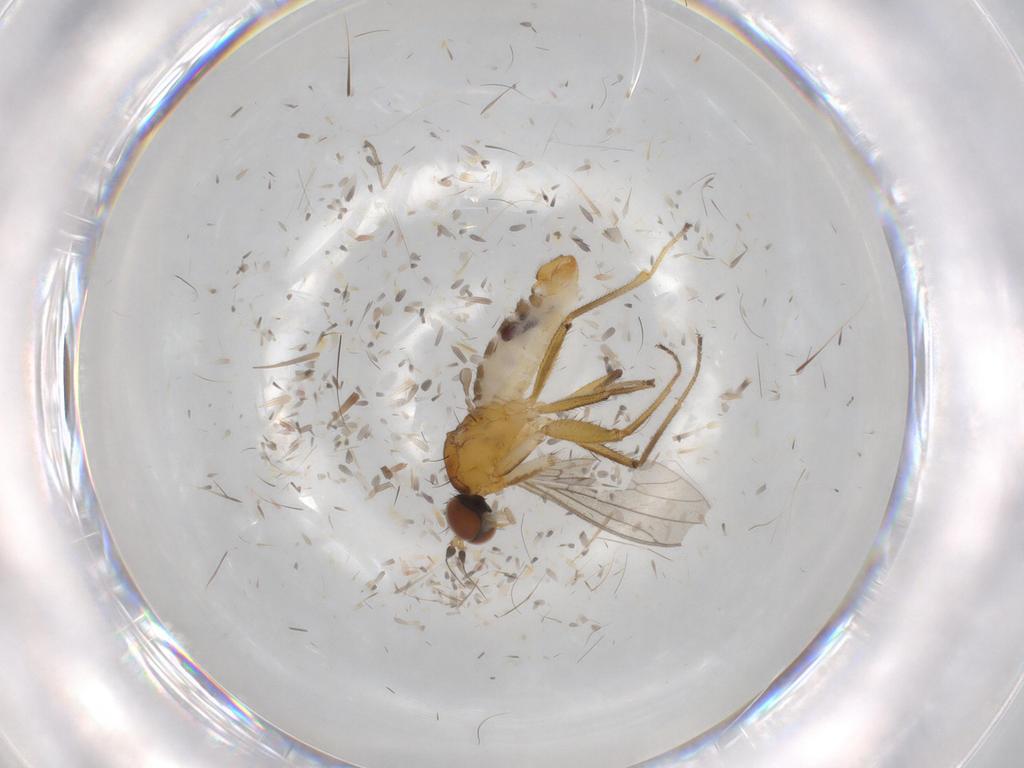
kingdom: Animalia
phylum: Arthropoda
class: Insecta
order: Diptera
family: Empididae
